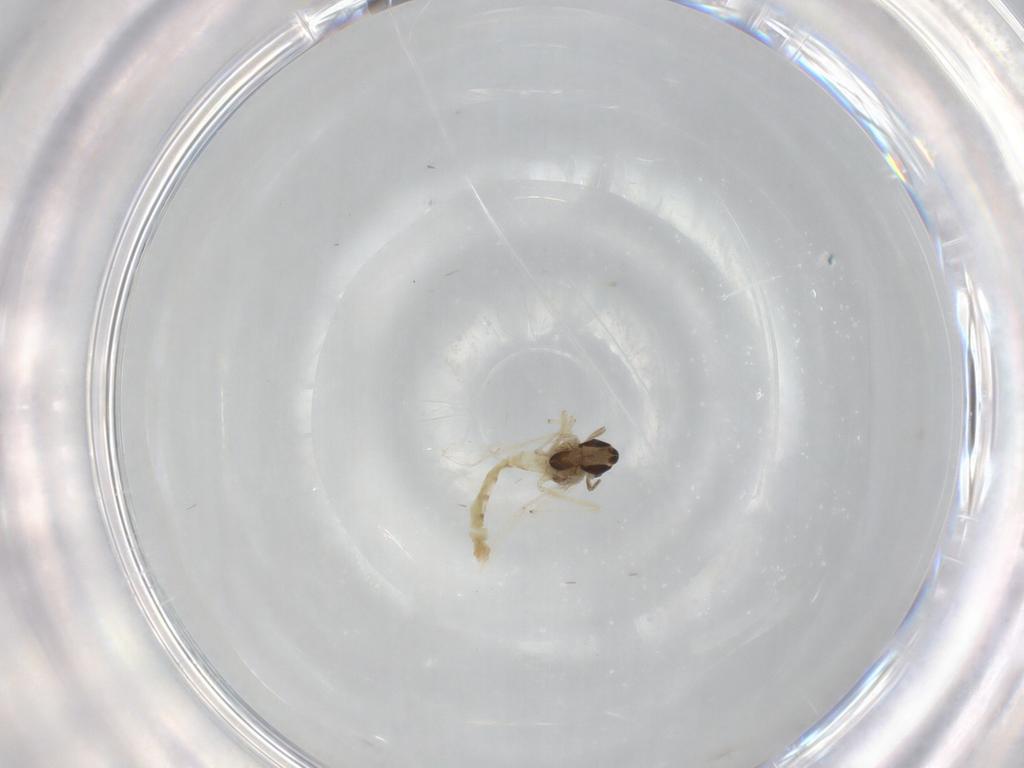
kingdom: Animalia
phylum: Arthropoda
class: Insecta
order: Diptera
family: Chironomidae
